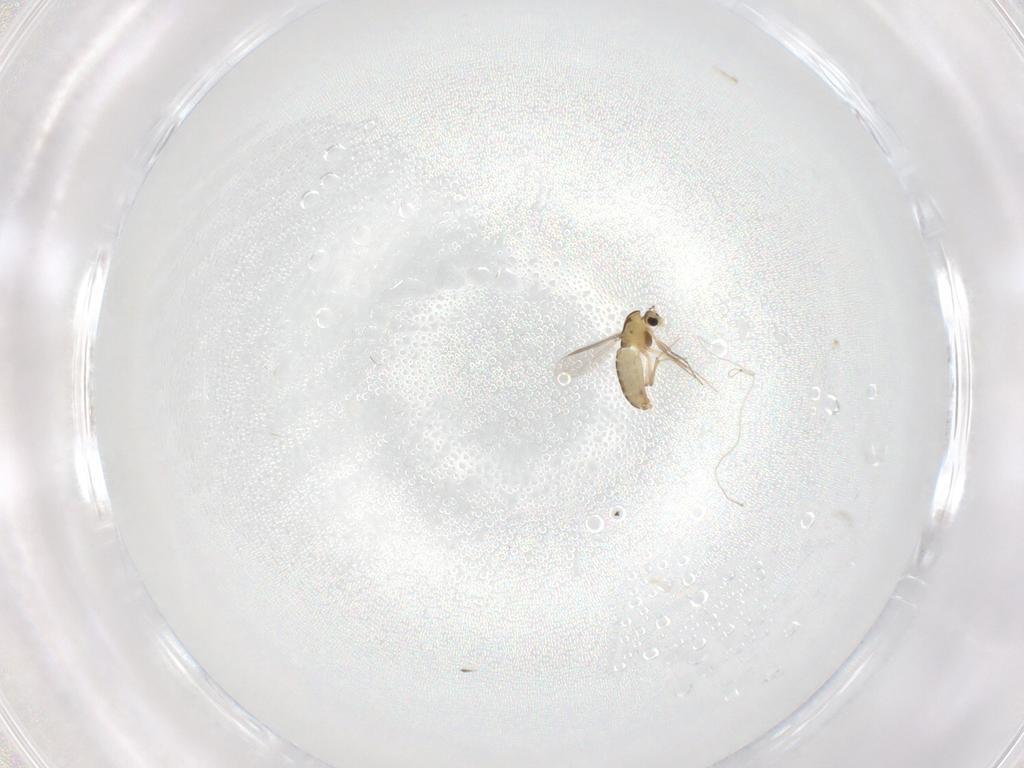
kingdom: Animalia
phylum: Arthropoda
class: Insecta
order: Diptera
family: Chironomidae
